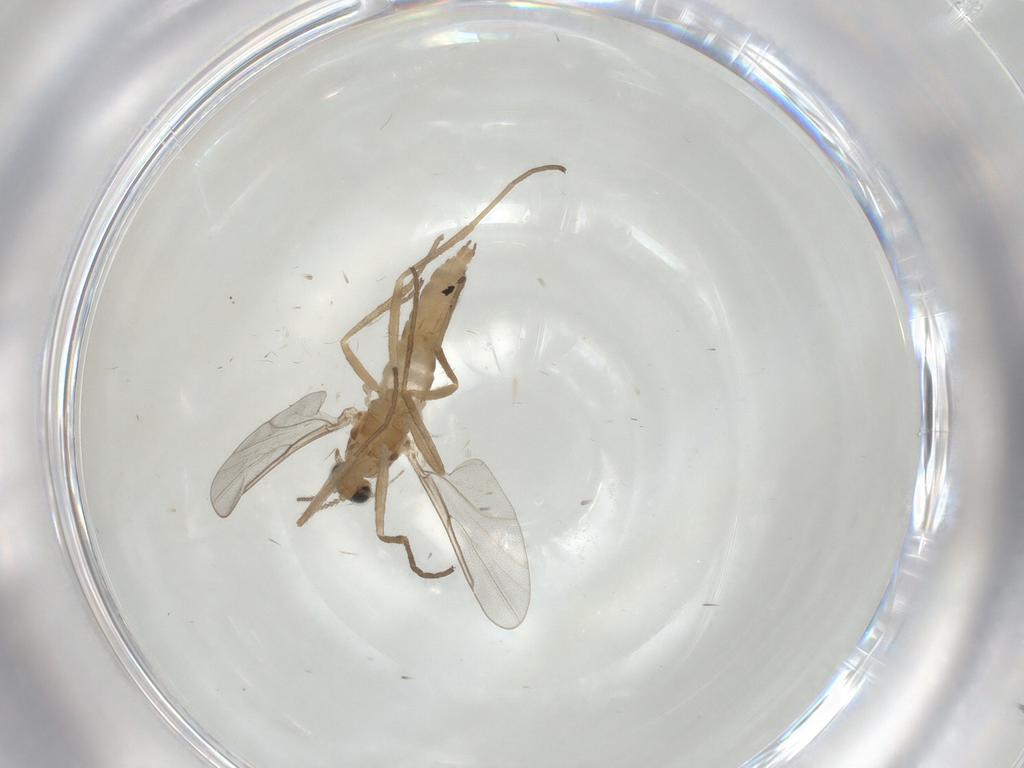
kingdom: Animalia
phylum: Arthropoda
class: Insecta
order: Diptera
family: Cecidomyiidae
